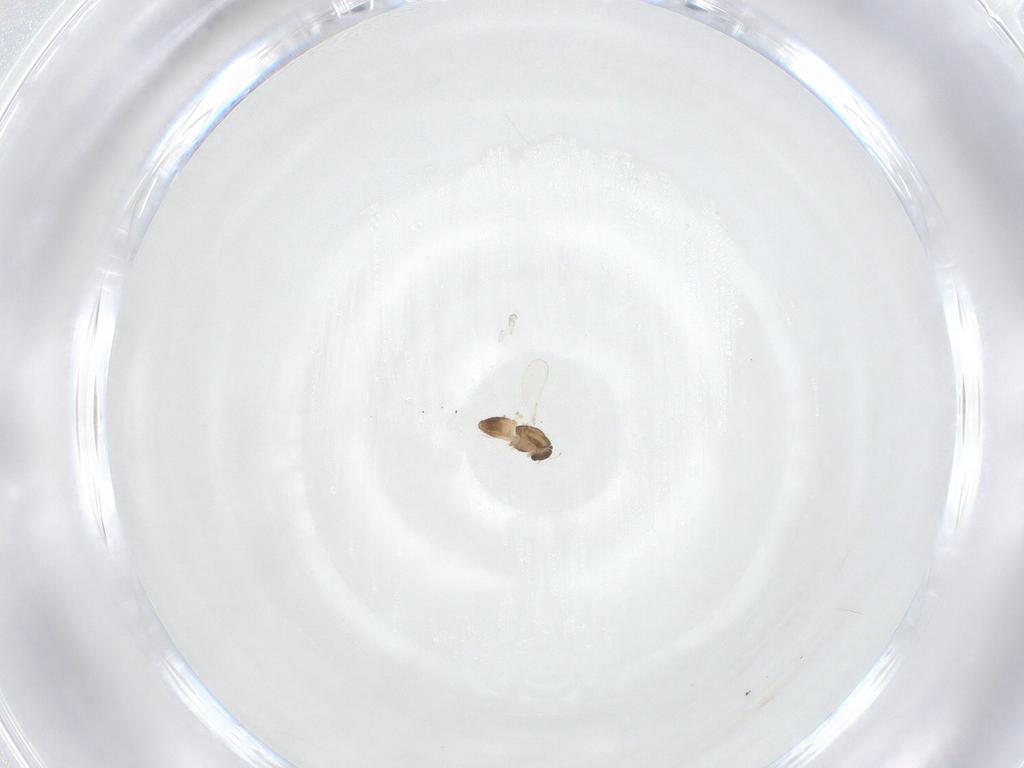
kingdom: Animalia
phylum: Arthropoda
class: Insecta
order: Diptera
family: Chironomidae
